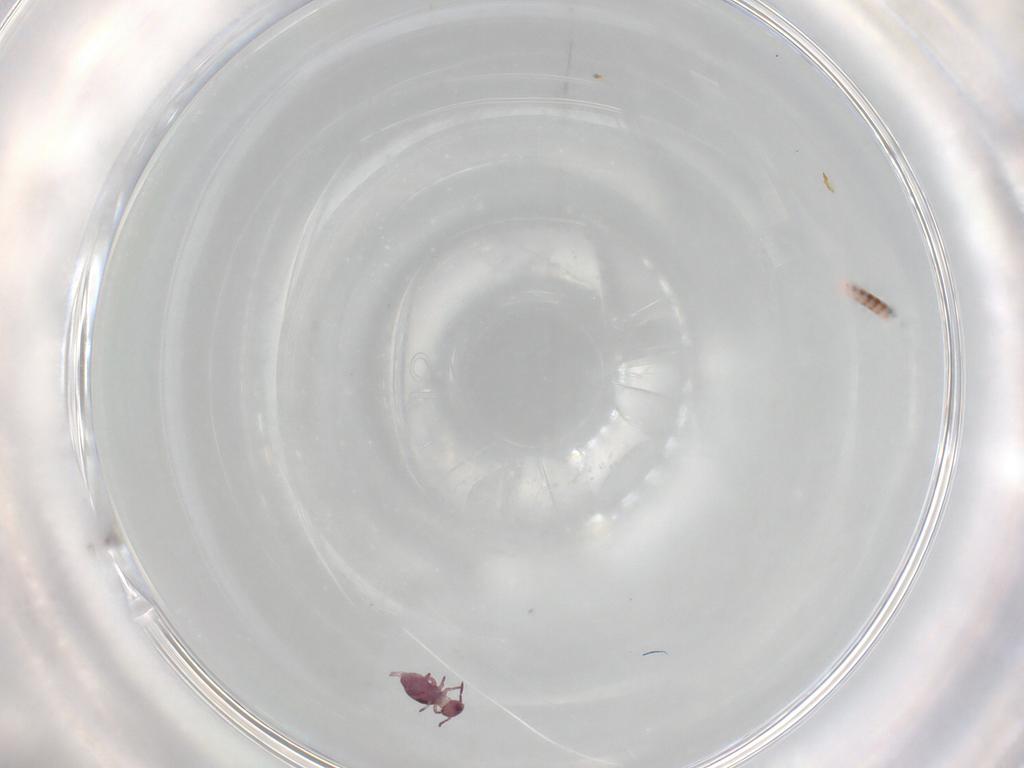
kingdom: Animalia
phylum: Arthropoda
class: Collembola
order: Symphypleona
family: Sminthurididae
